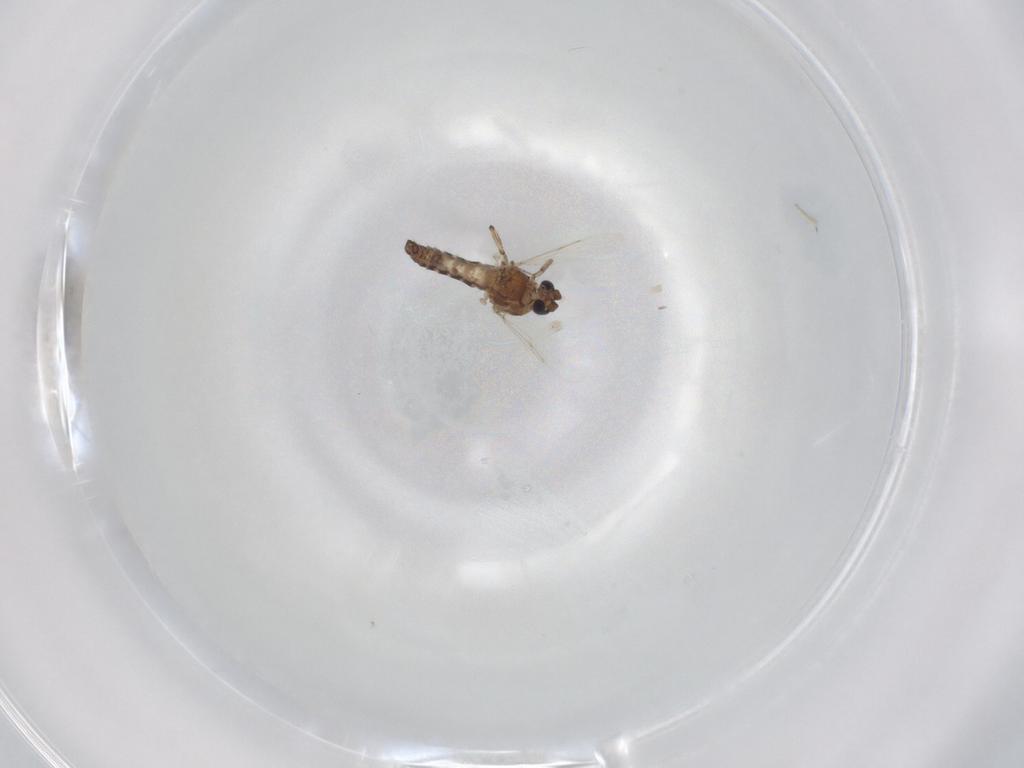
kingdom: Animalia
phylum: Arthropoda
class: Insecta
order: Diptera
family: Ceratopogonidae
